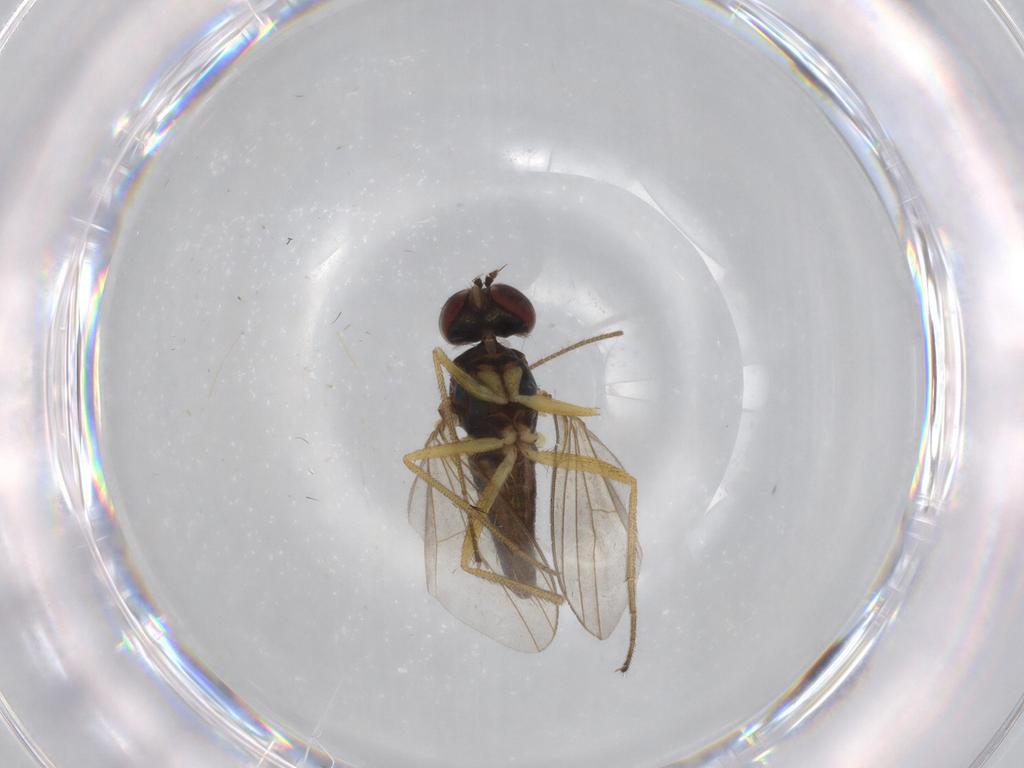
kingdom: Animalia
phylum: Arthropoda
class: Insecta
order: Diptera
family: Dolichopodidae
